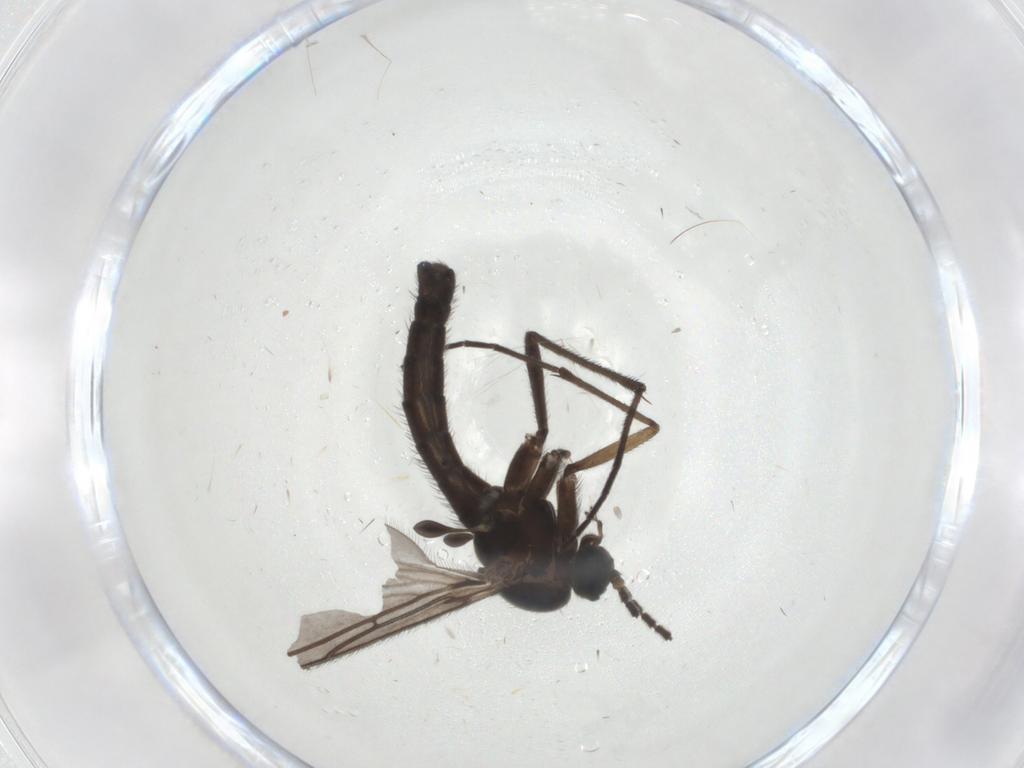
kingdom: Animalia
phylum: Arthropoda
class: Insecta
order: Diptera
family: Sciaridae
